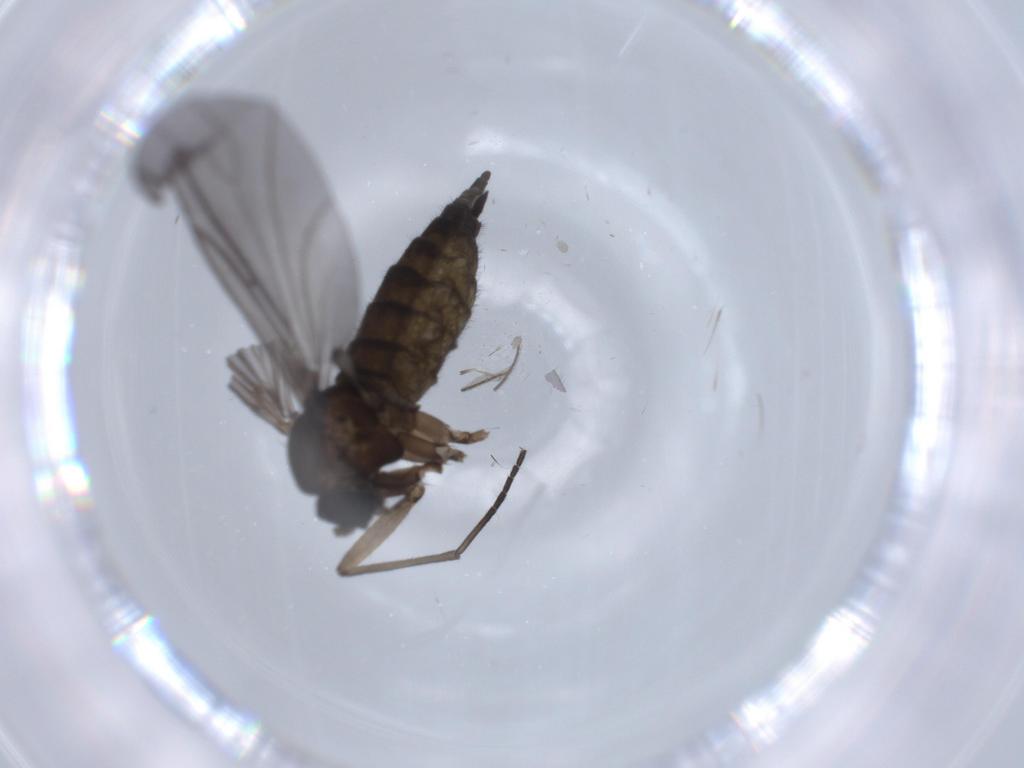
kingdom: Animalia
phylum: Arthropoda
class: Insecta
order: Diptera
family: Sciaridae
